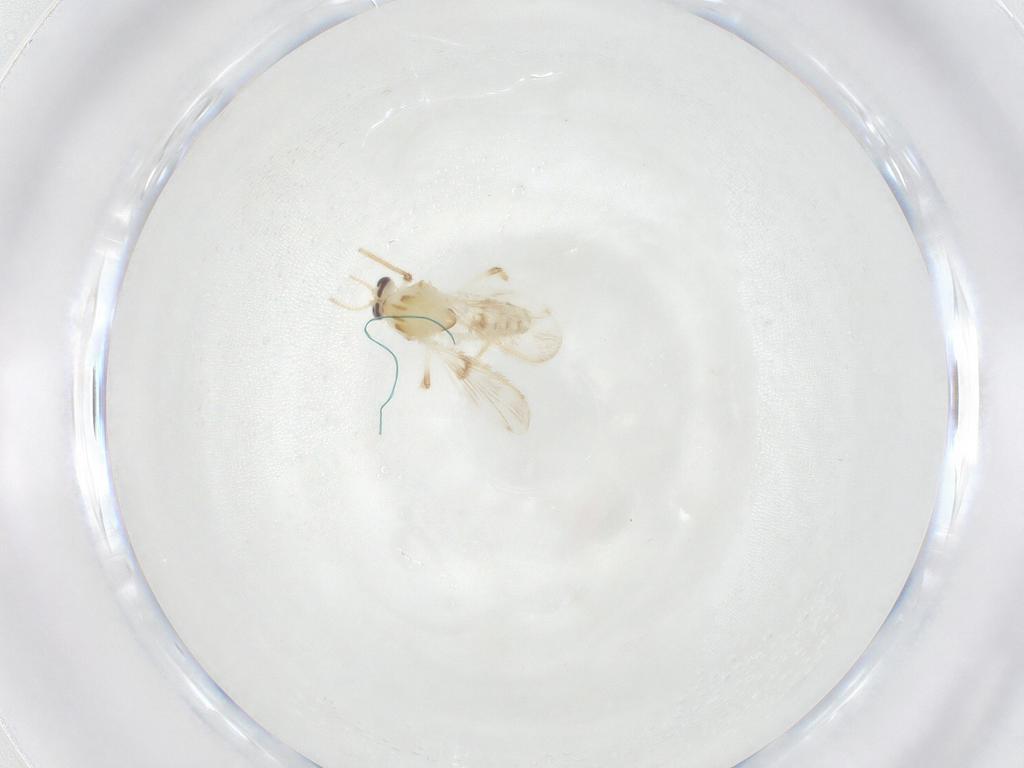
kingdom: Animalia
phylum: Arthropoda
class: Insecta
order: Diptera
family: Chironomidae
